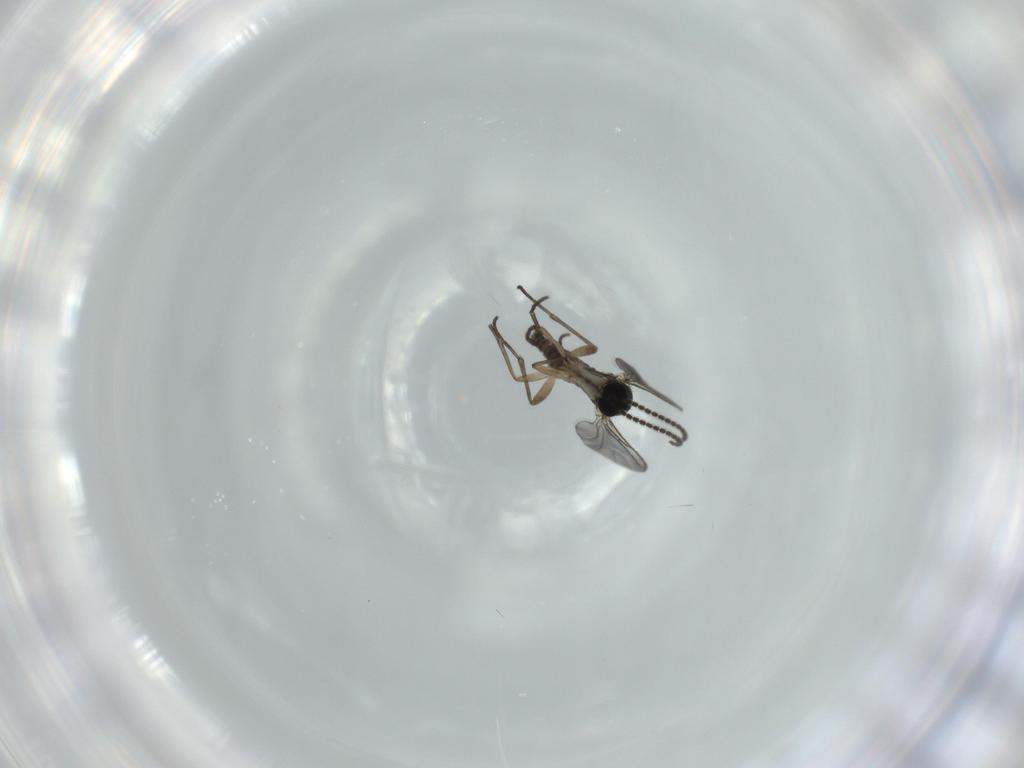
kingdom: Animalia
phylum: Arthropoda
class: Insecta
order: Diptera
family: Sciaridae
